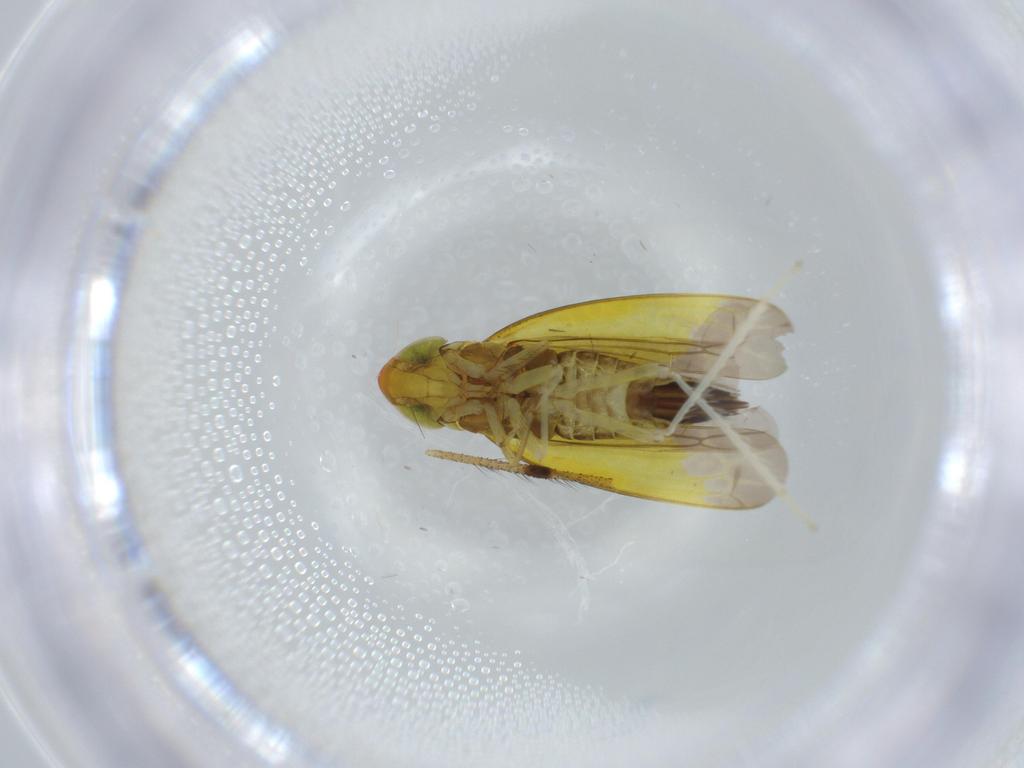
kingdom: Animalia
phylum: Arthropoda
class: Insecta
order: Hemiptera
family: Cicadellidae
